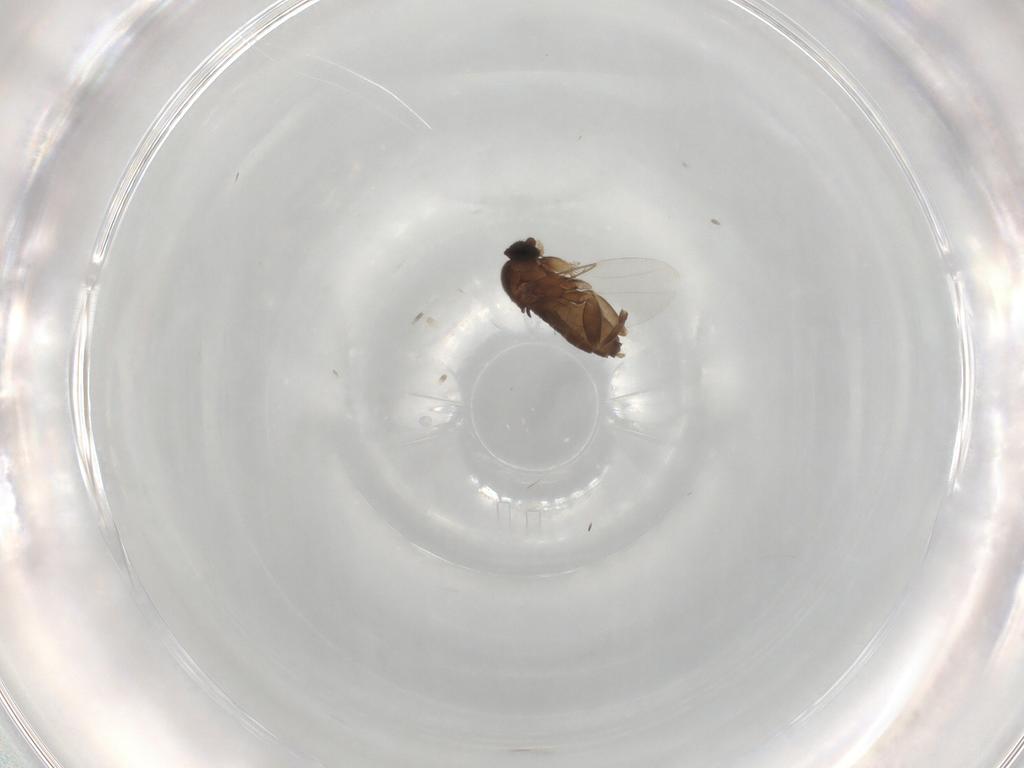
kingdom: Animalia
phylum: Arthropoda
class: Insecta
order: Diptera
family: Phoridae
